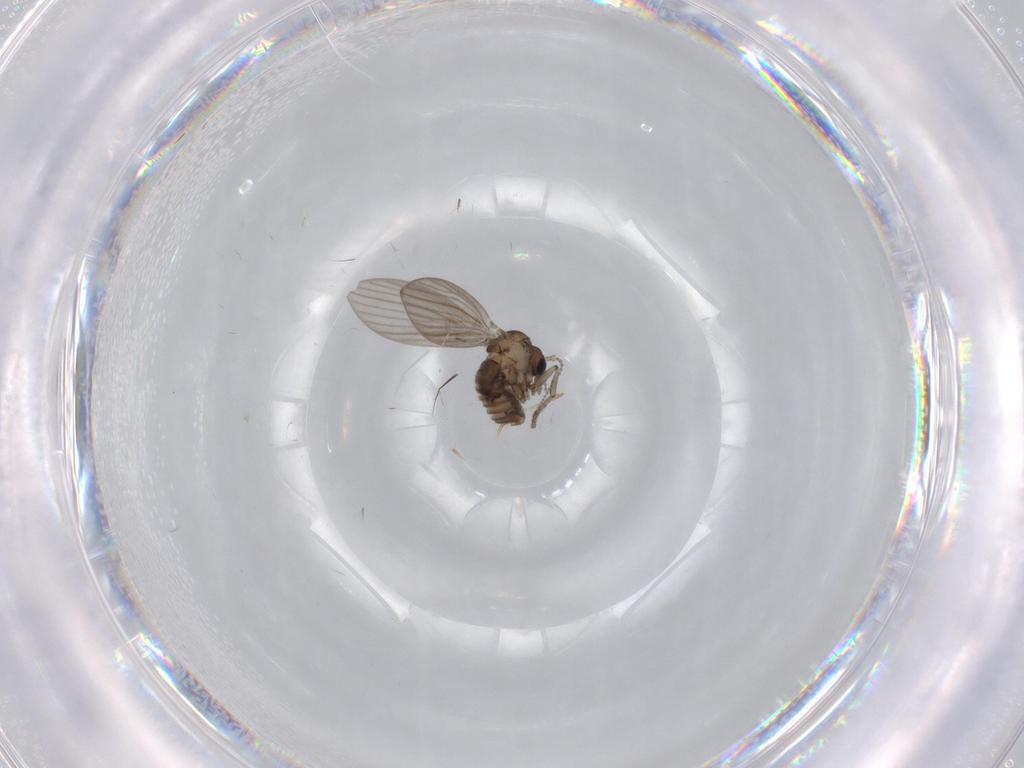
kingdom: Animalia
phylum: Arthropoda
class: Insecta
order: Diptera
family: Psychodidae
